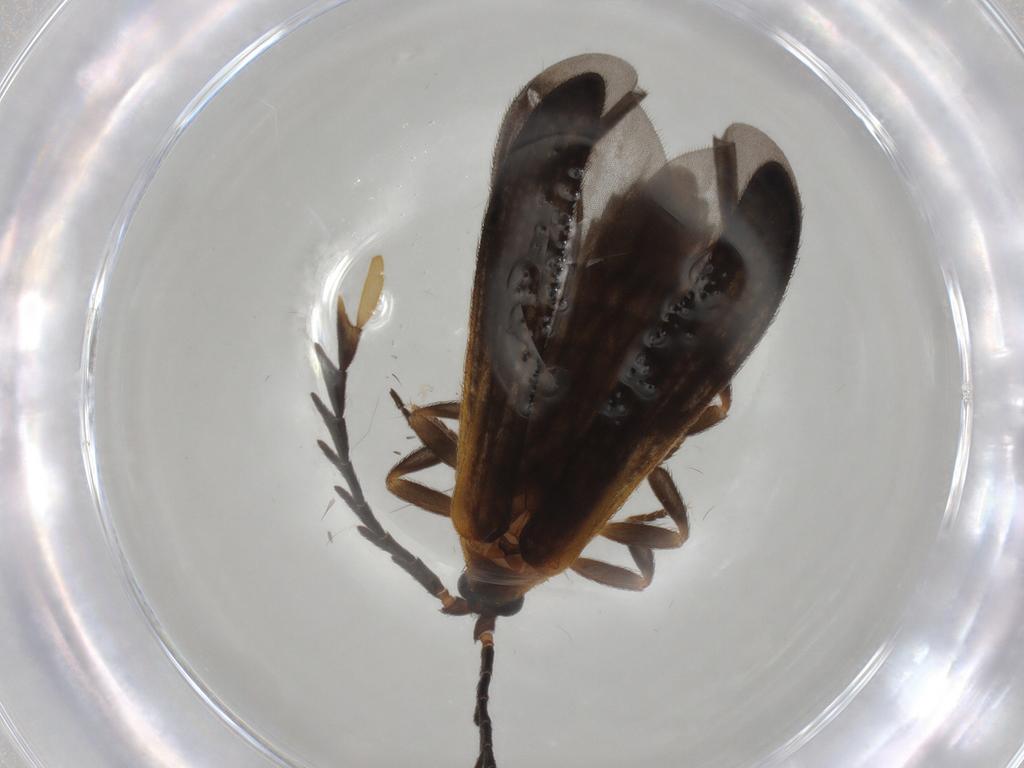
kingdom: Animalia
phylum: Arthropoda
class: Insecta
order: Coleoptera
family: Lycidae
